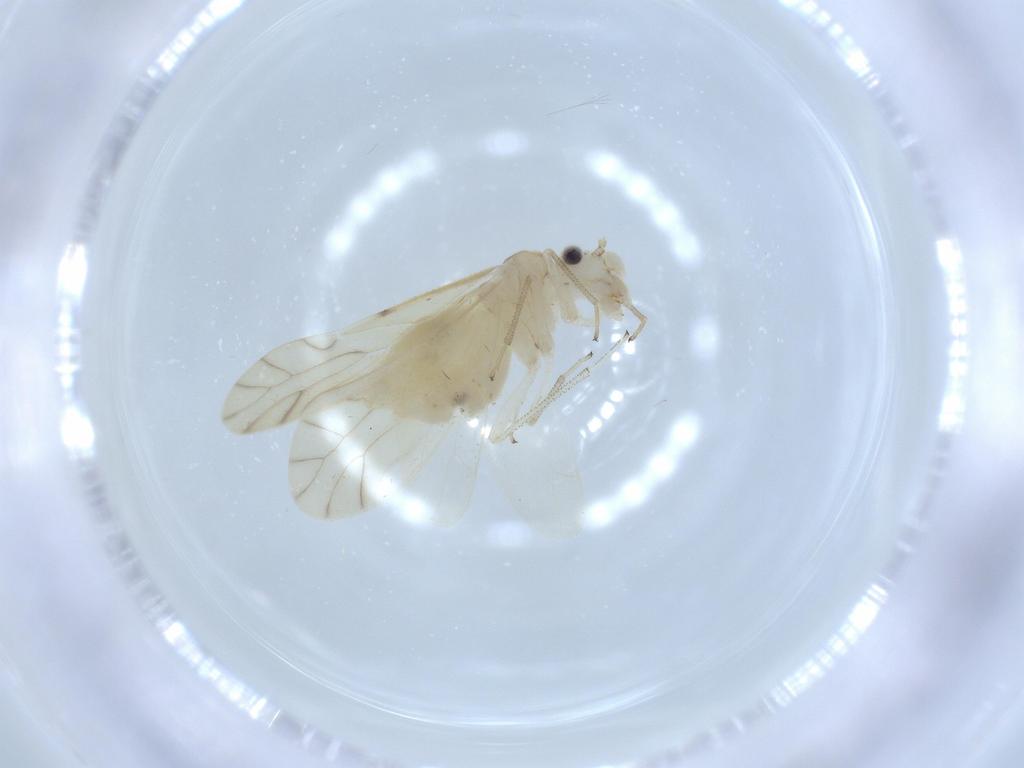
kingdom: Animalia
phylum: Arthropoda
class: Insecta
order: Psocodea
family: Caeciliusidae
